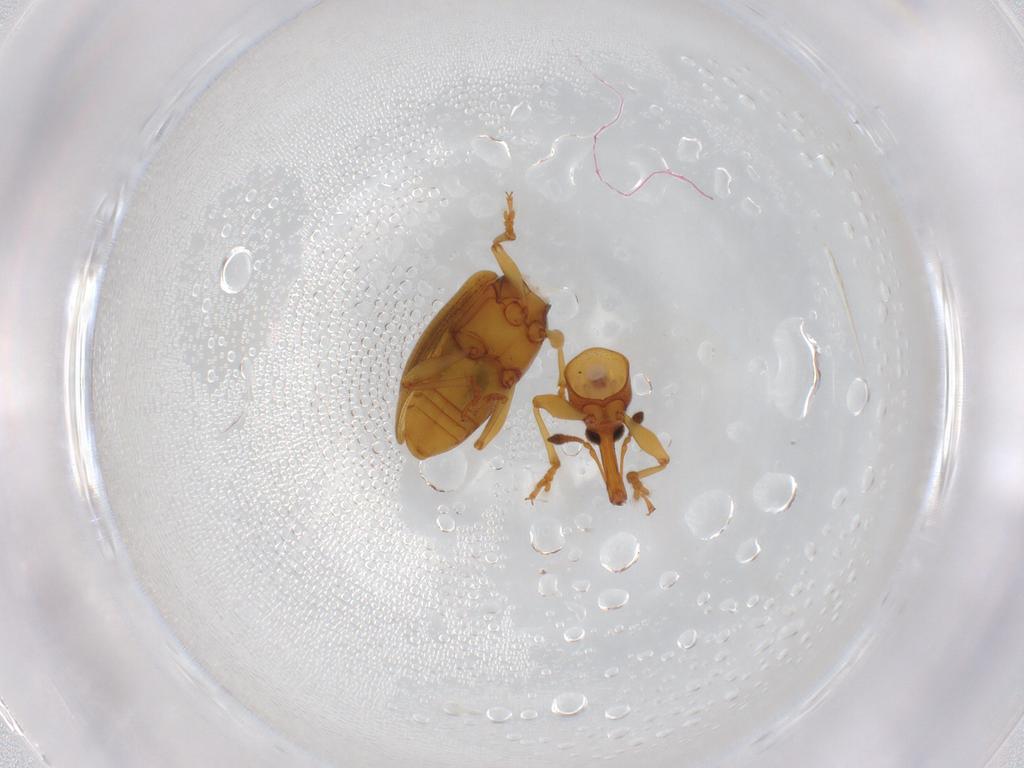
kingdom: Animalia
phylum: Arthropoda
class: Insecta
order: Coleoptera
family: Curculionidae
